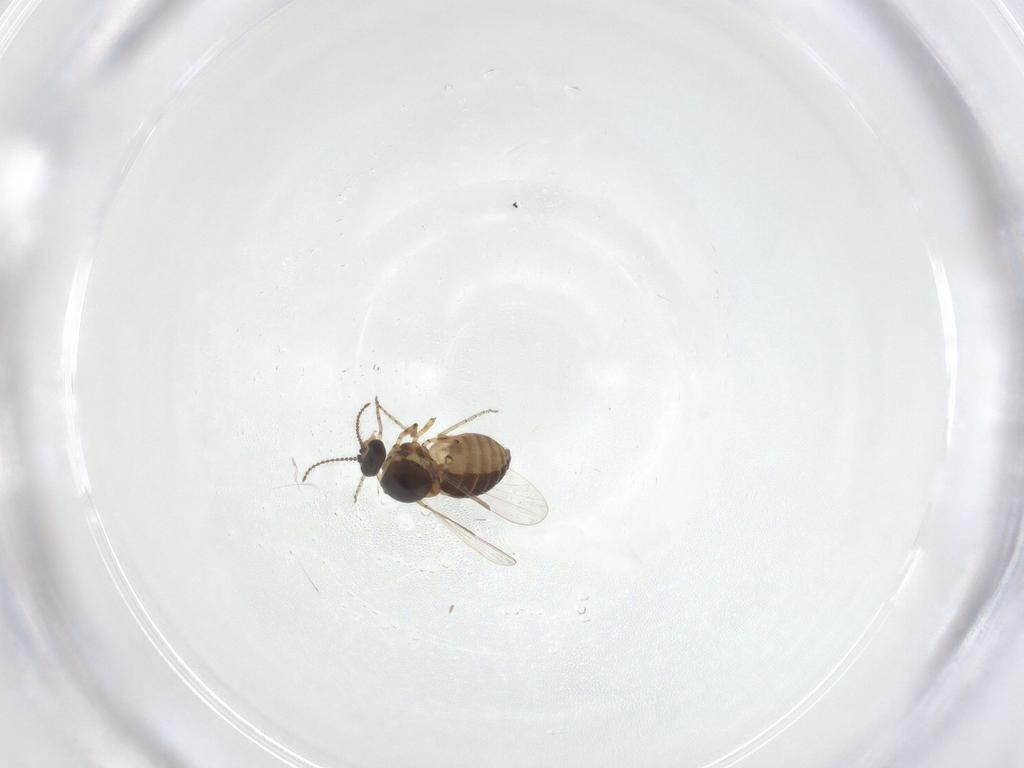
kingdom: Animalia
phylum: Arthropoda
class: Insecta
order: Diptera
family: Ceratopogonidae
